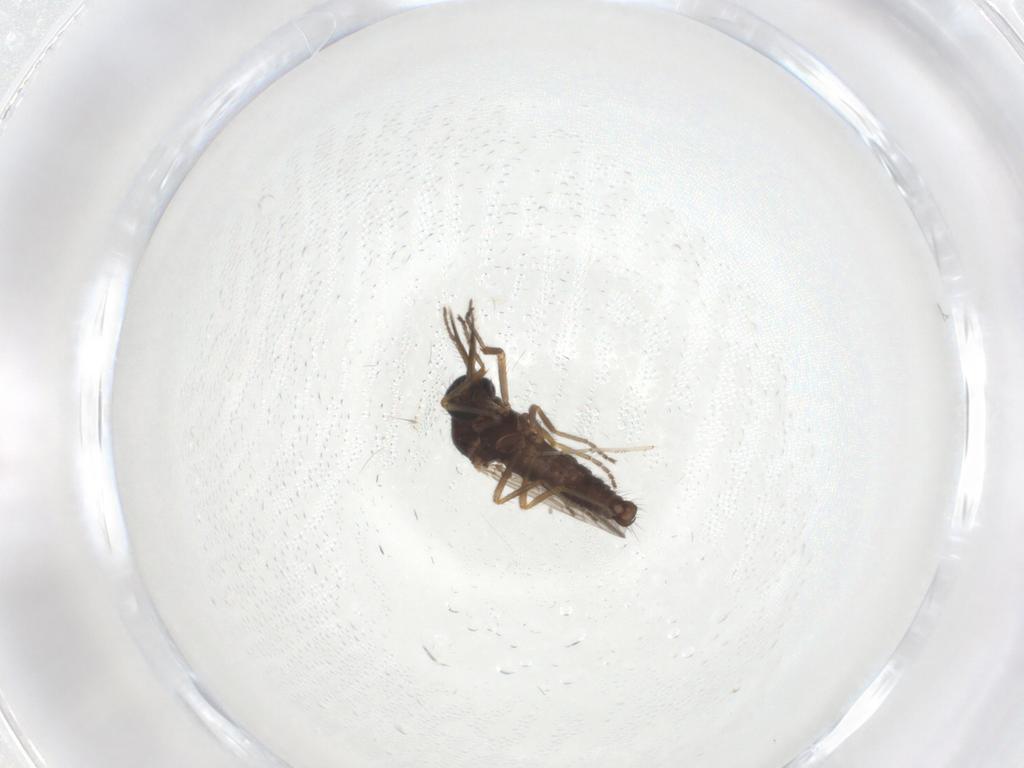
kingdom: Animalia
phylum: Arthropoda
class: Insecta
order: Diptera
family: Ceratopogonidae
